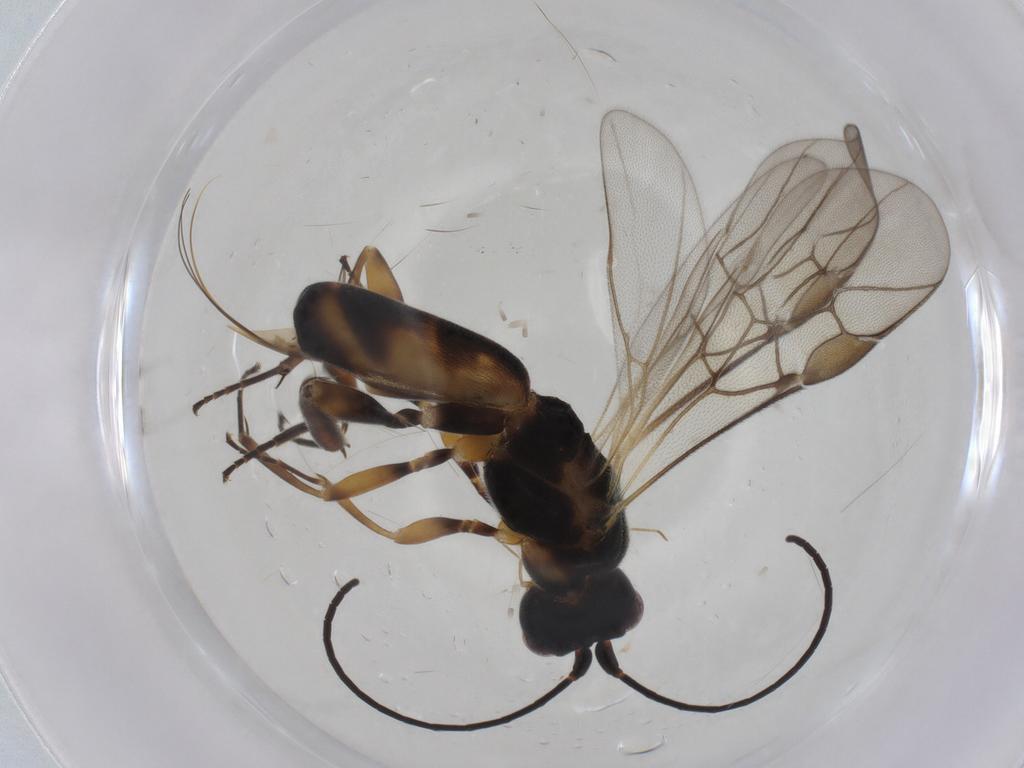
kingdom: Animalia
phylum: Arthropoda
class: Insecta
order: Hymenoptera
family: Braconidae
